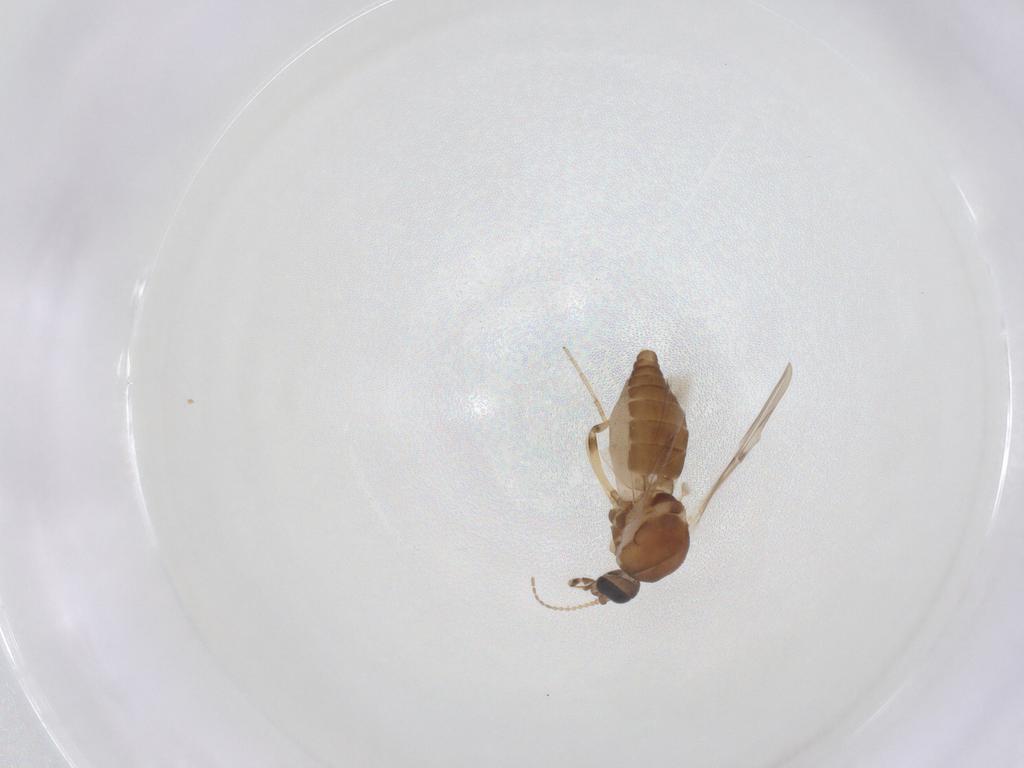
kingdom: Animalia
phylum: Arthropoda
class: Insecta
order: Diptera
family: Ceratopogonidae
